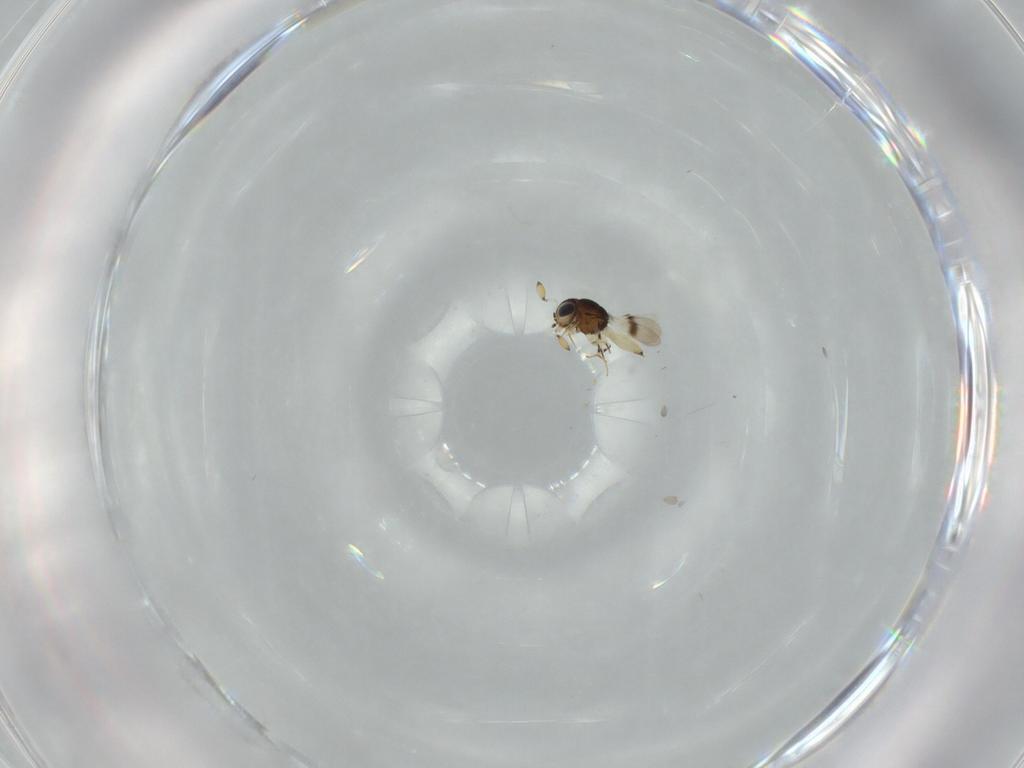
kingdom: Animalia
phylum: Arthropoda
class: Insecta
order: Hymenoptera
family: Scelionidae
